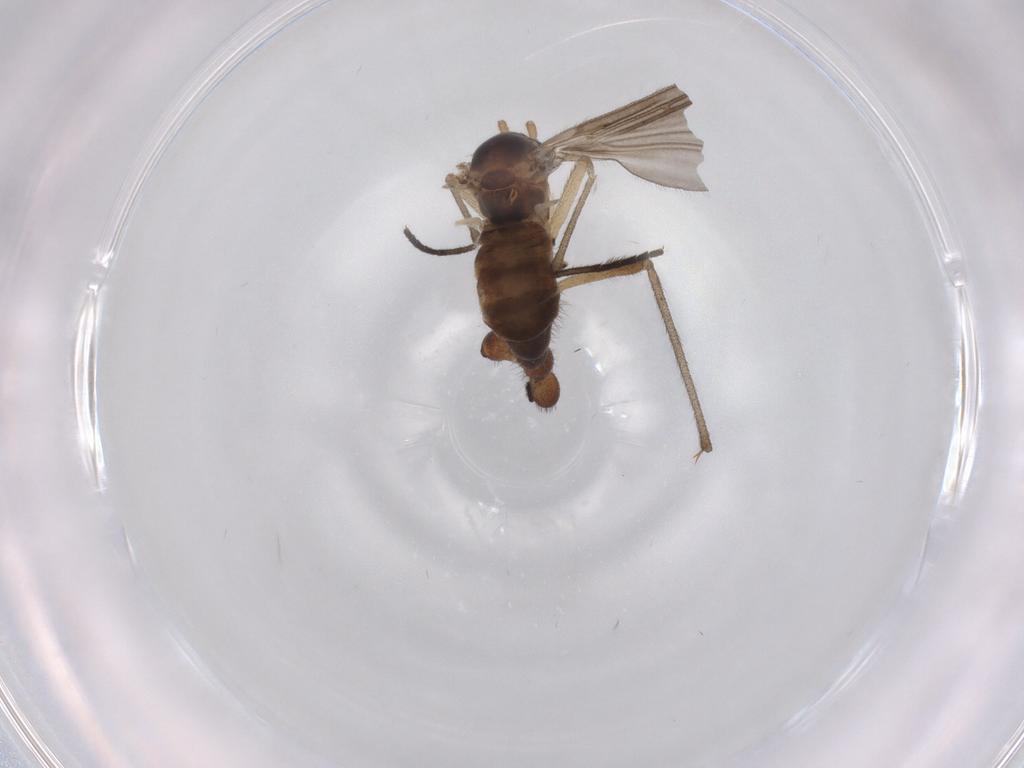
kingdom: Animalia
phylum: Arthropoda
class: Insecta
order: Diptera
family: Sciaridae
